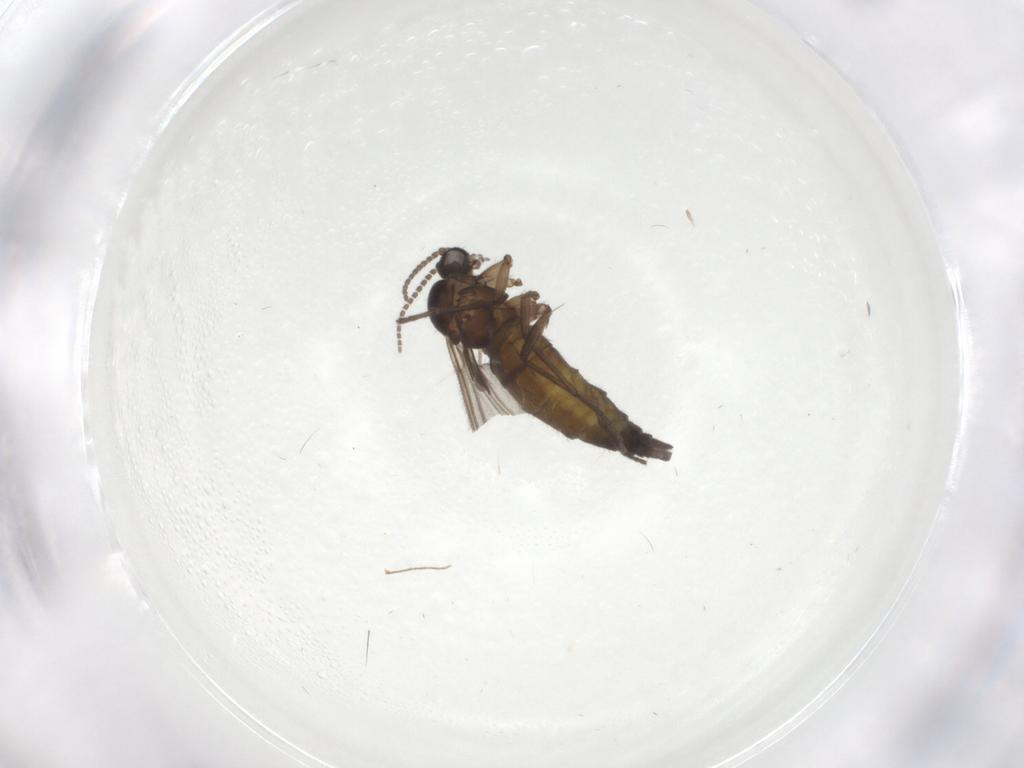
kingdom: Animalia
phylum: Arthropoda
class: Insecta
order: Diptera
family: Sciaridae
